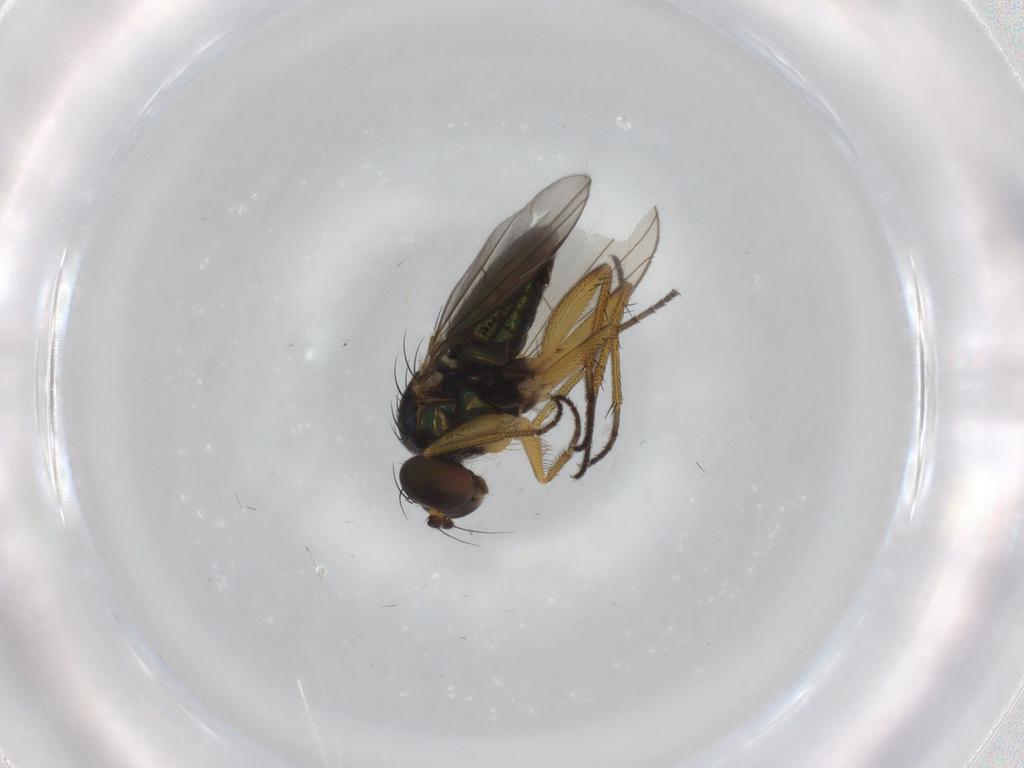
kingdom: Animalia
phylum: Arthropoda
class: Insecta
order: Diptera
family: Dolichopodidae
